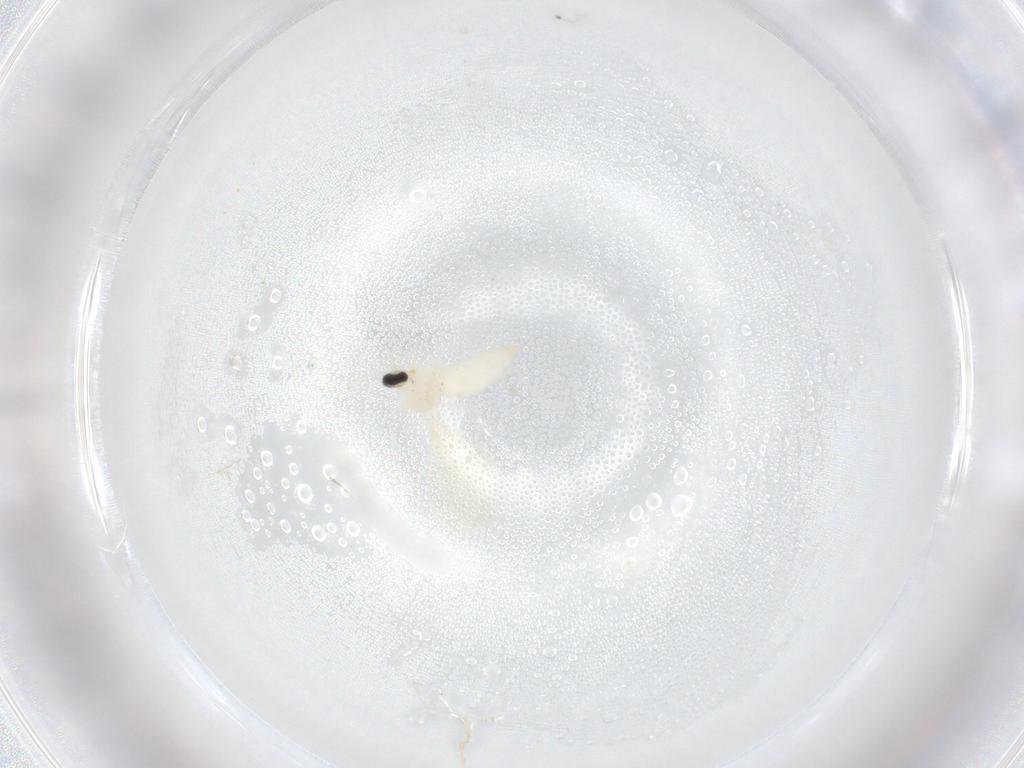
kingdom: Animalia
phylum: Arthropoda
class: Insecta
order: Diptera
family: Cecidomyiidae
